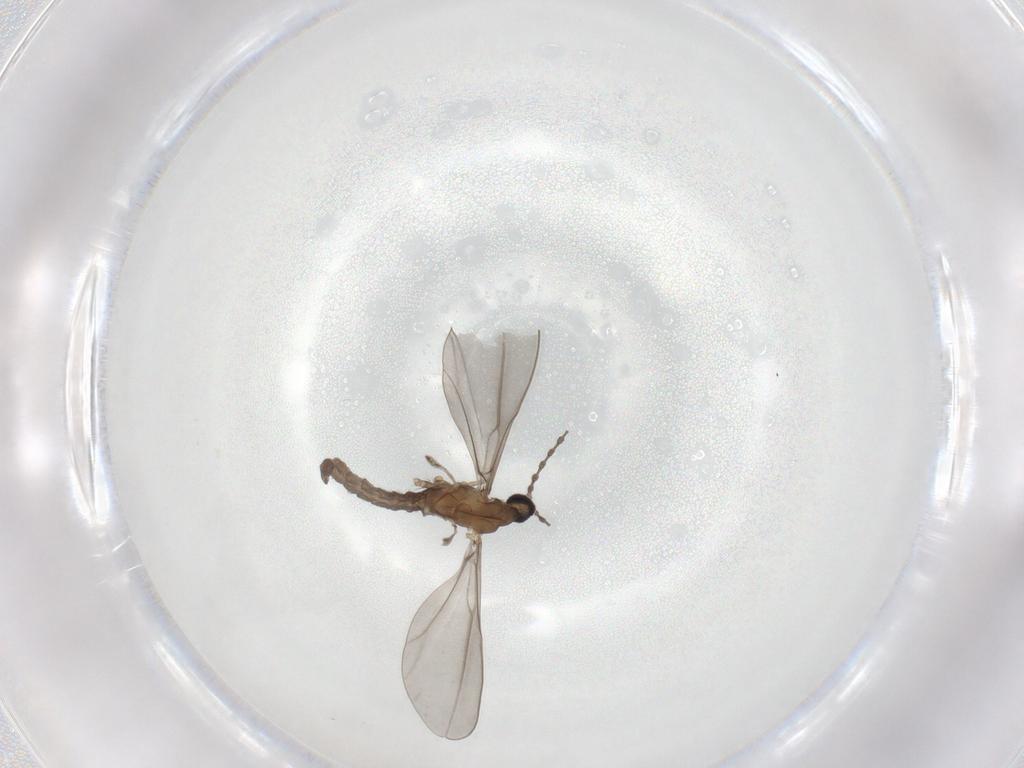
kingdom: Animalia
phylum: Arthropoda
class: Insecta
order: Diptera
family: Cecidomyiidae
